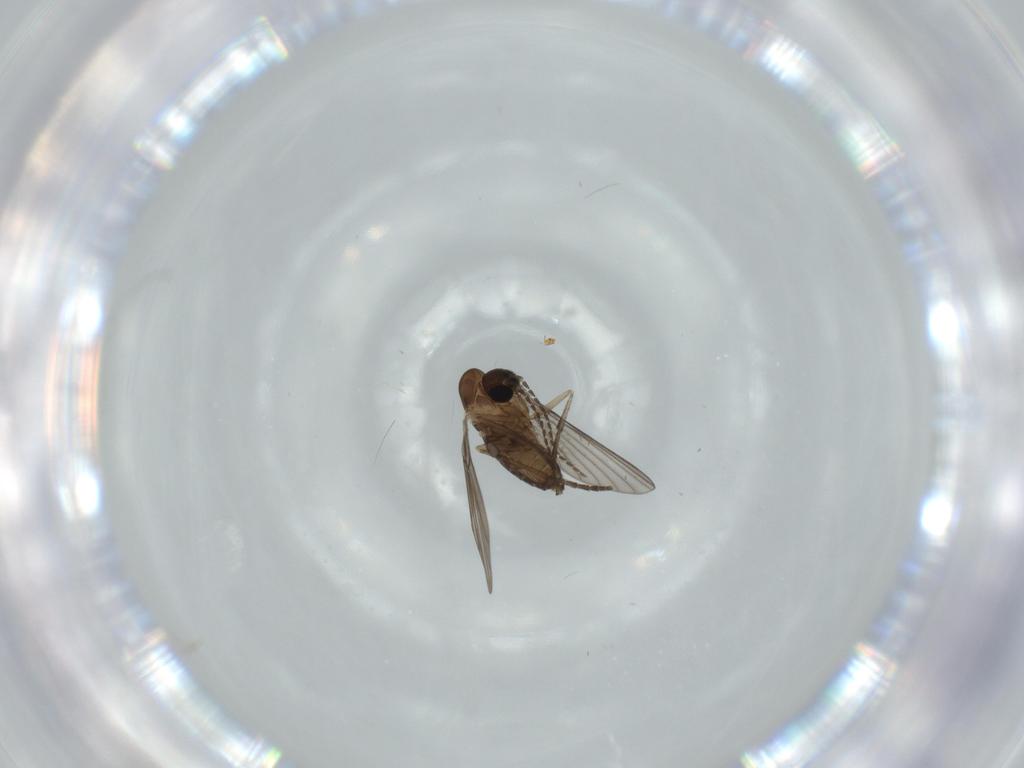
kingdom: Animalia
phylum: Arthropoda
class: Insecta
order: Diptera
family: Psychodidae
